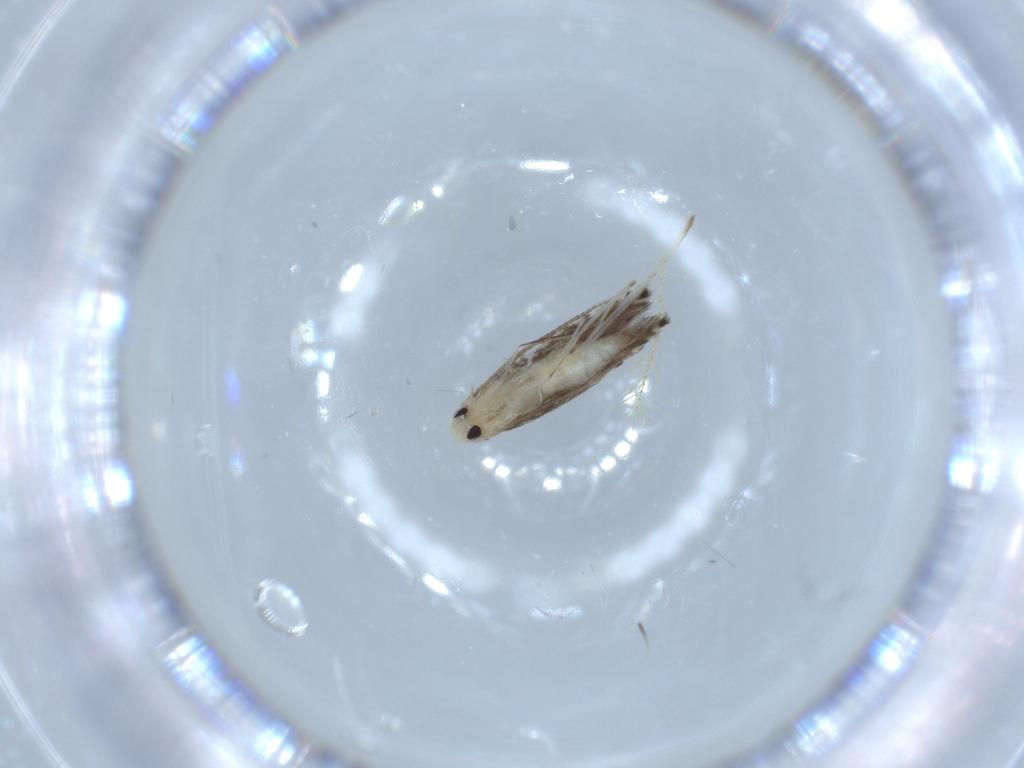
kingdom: Animalia
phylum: Arthropoda
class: Insecta
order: Lepidoptera
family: Gracillariidae
